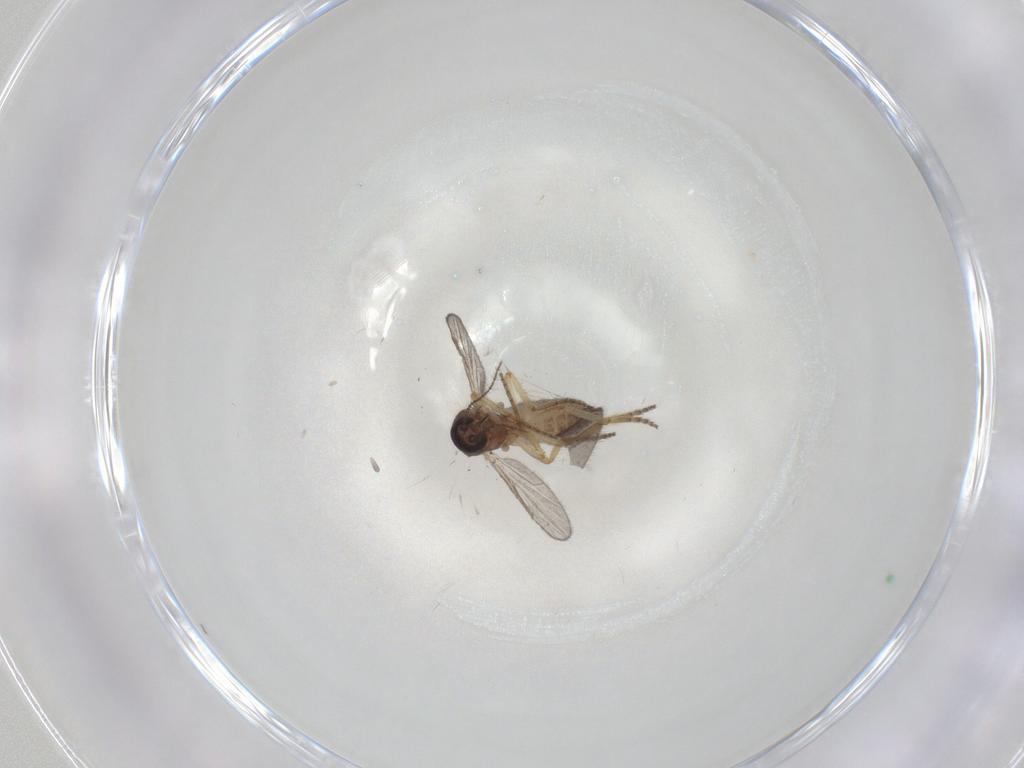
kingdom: Animalia
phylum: Arthropoda
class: Insecta
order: Diptera
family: Ceratopogonidae
